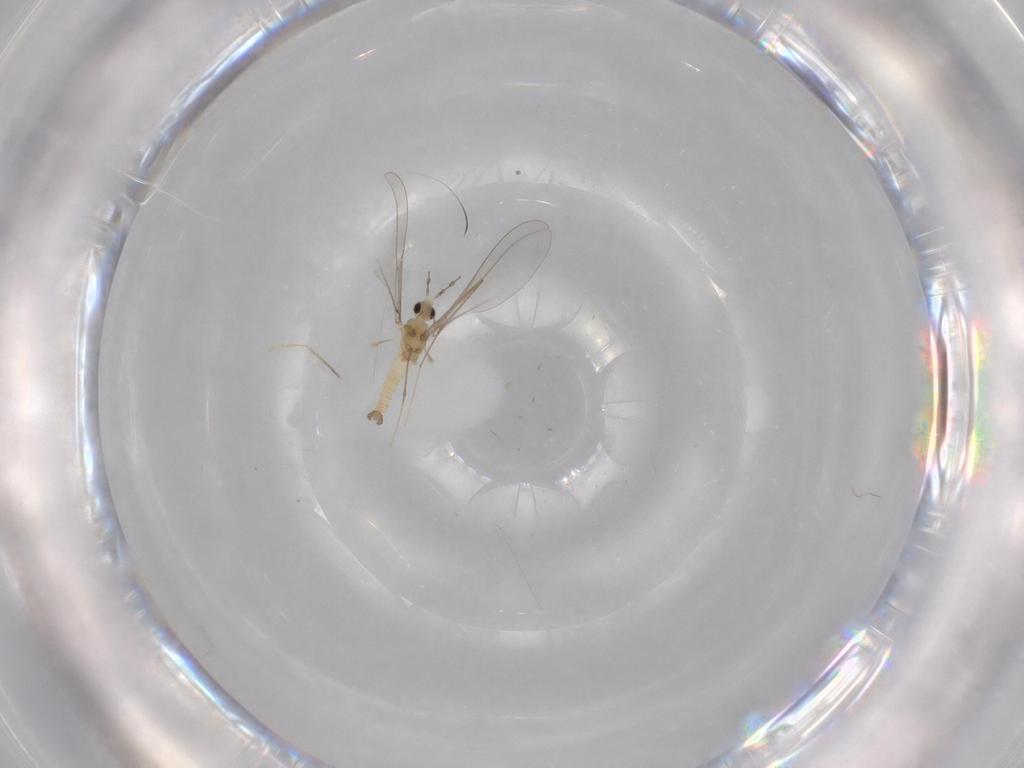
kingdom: Animalia
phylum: Arthropoda
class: Insecta
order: Diptera
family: Cecidomyiidae
